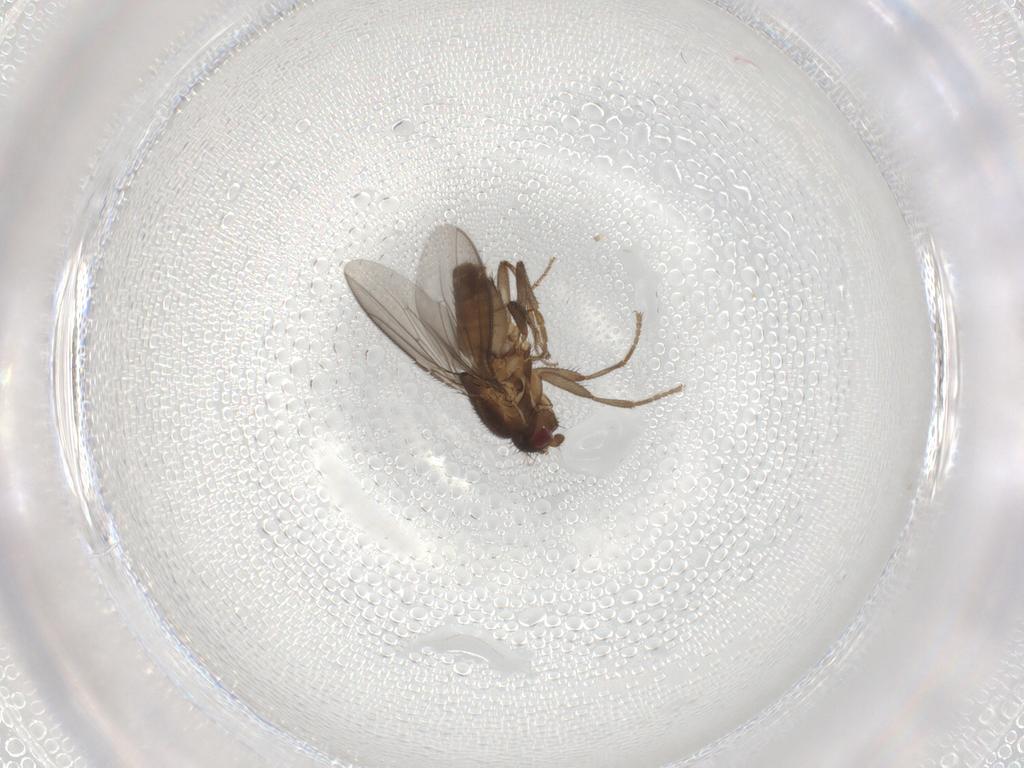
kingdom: Animalia
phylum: Arthropoda
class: Insecta
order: Diptera
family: Sphaeroceridae
